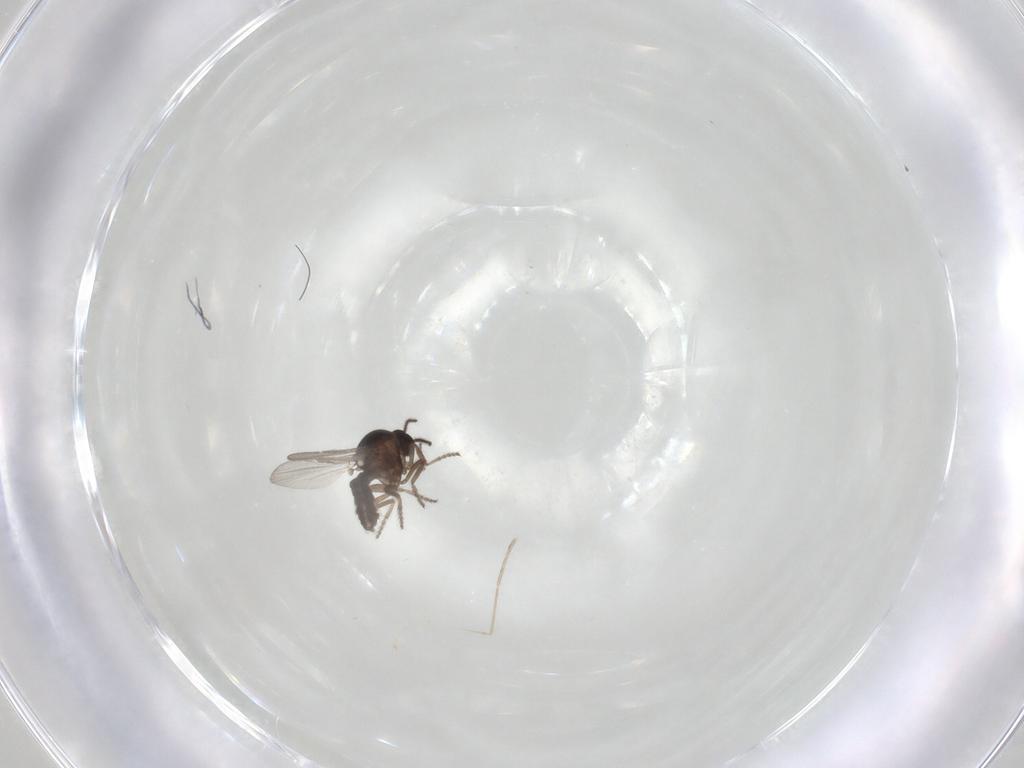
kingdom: Animalia
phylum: Arthropoda
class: Insecta
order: Diptera
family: Ceratopogonidae
